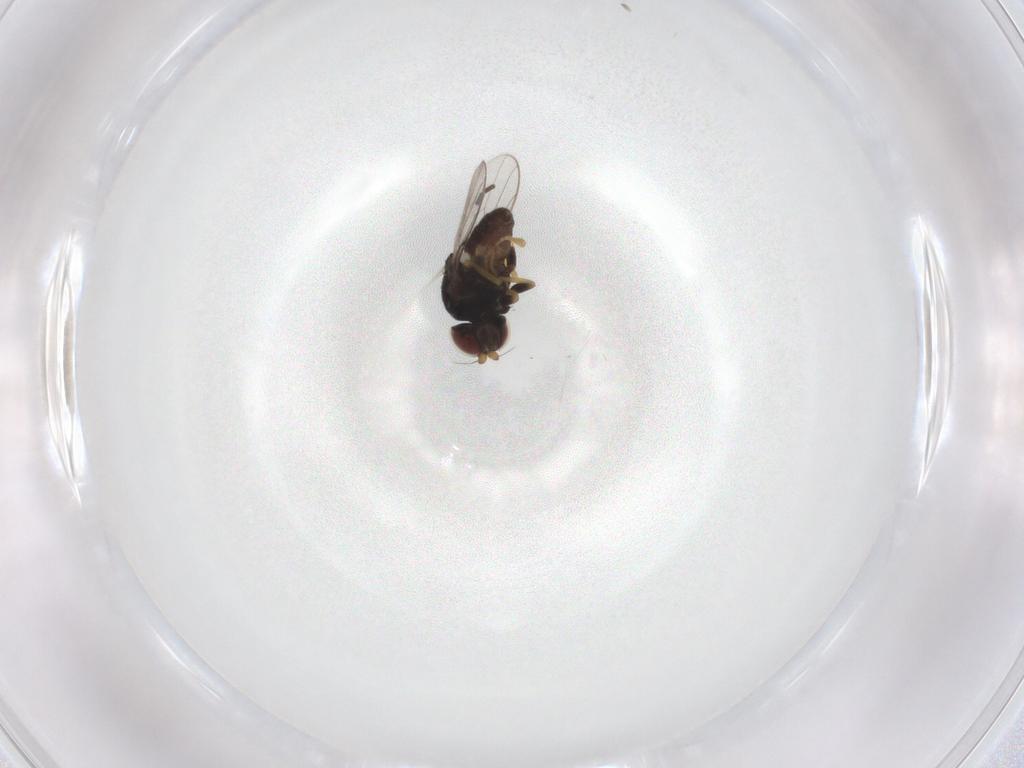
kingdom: Animalia
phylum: Arthropoda
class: Insecta
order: Diptera
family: Chloropidae
